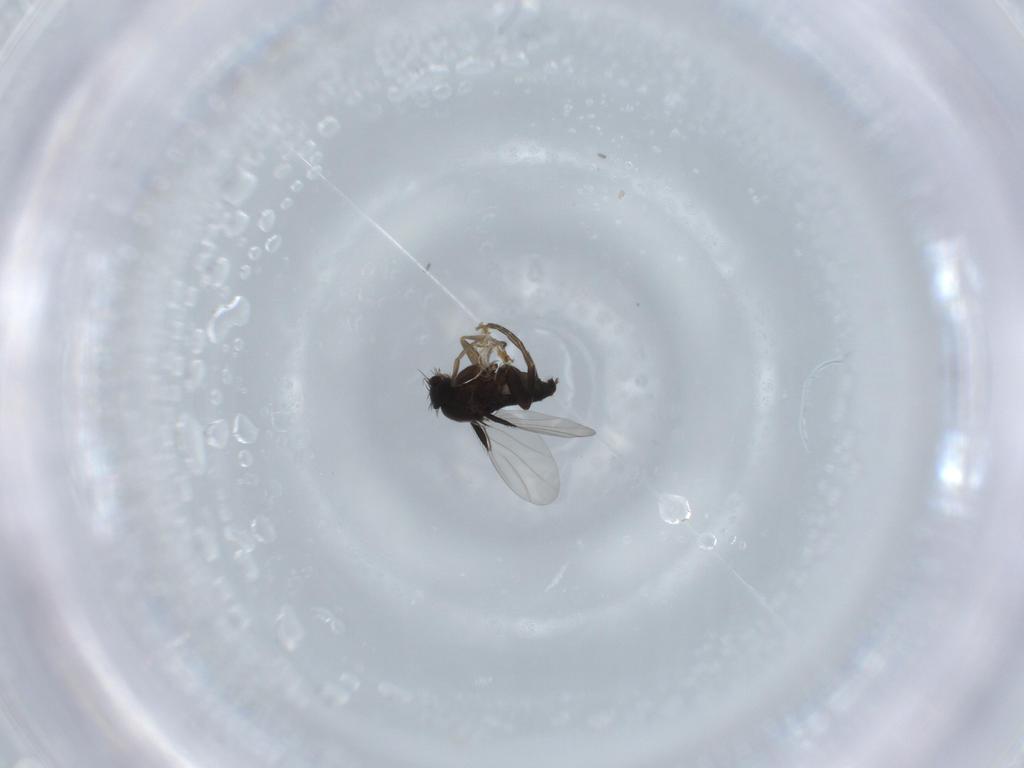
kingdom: Animalia
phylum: Arthropoda
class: Insecta
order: Diptera
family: Phoridae
